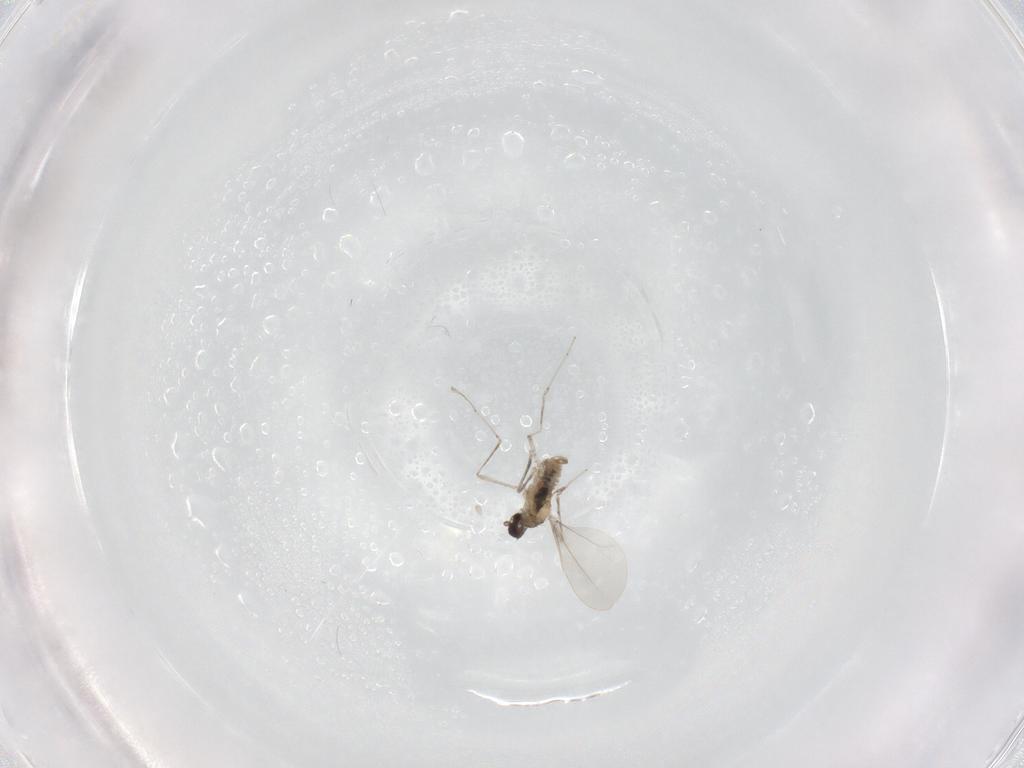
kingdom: Animalia
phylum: Arthropoda
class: Insecta
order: Diptera
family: Cecidomyiidae
